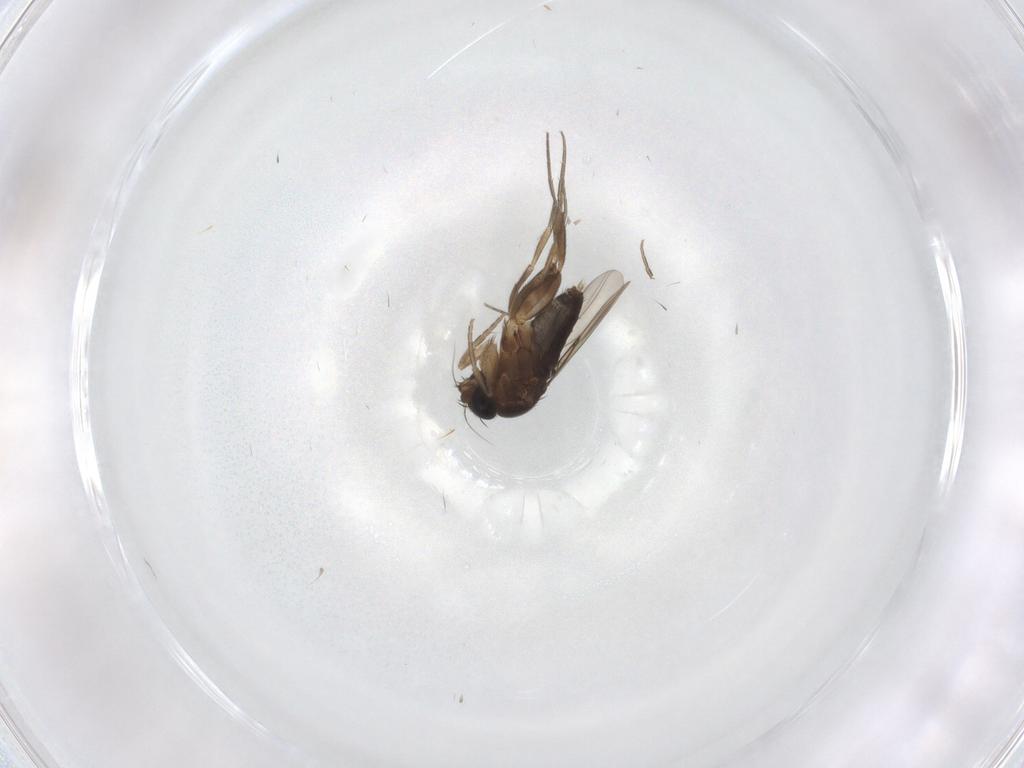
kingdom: Animalia
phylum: Arthropoda
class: Insecta
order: Diptera
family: Phoridae
